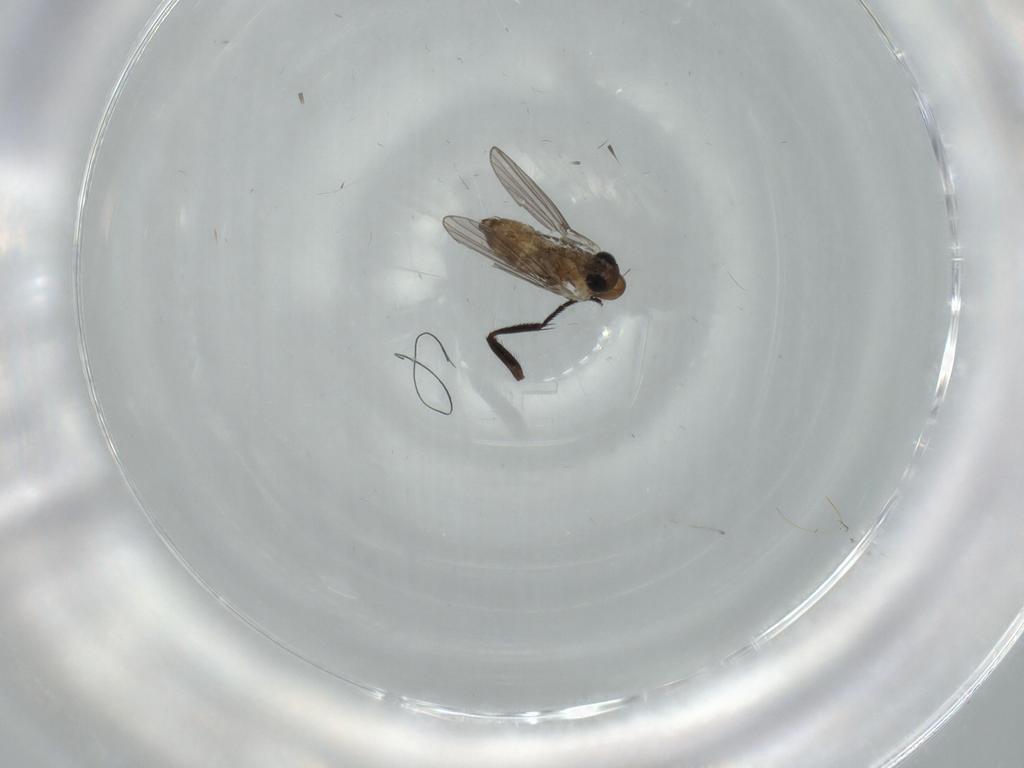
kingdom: Animalia
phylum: Arthropoda
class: Insecta
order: Diptera
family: Psychodidae
